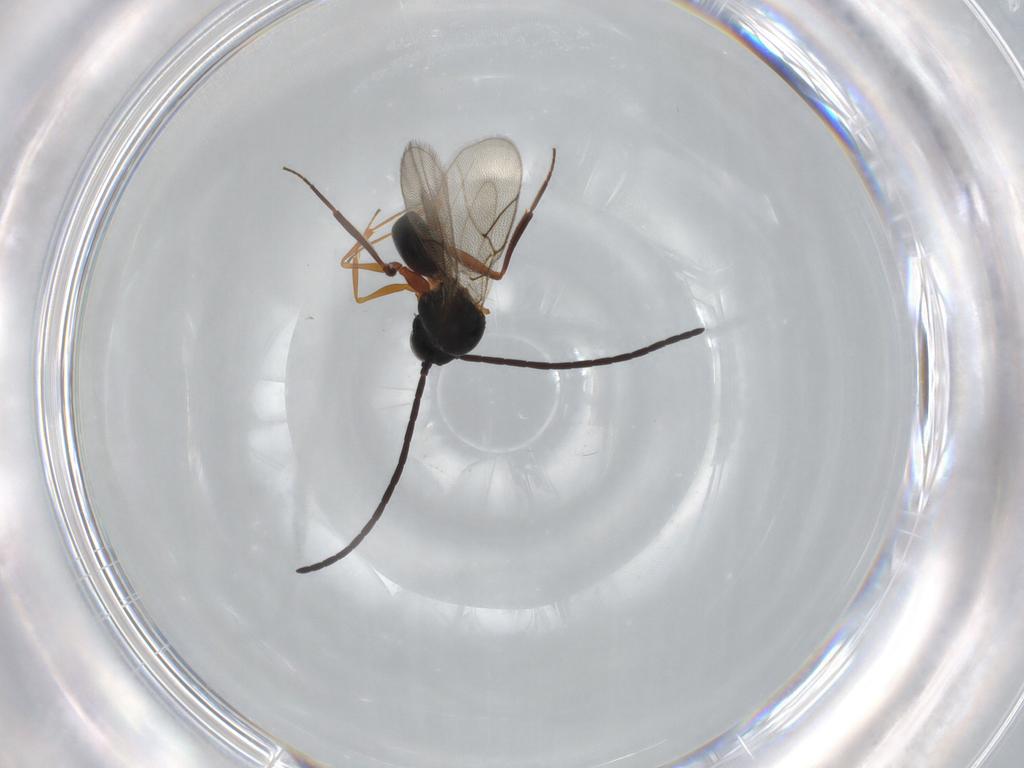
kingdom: Animalia
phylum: Arthropoda
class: Insecta
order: Hymenoptera
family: Figitidae
